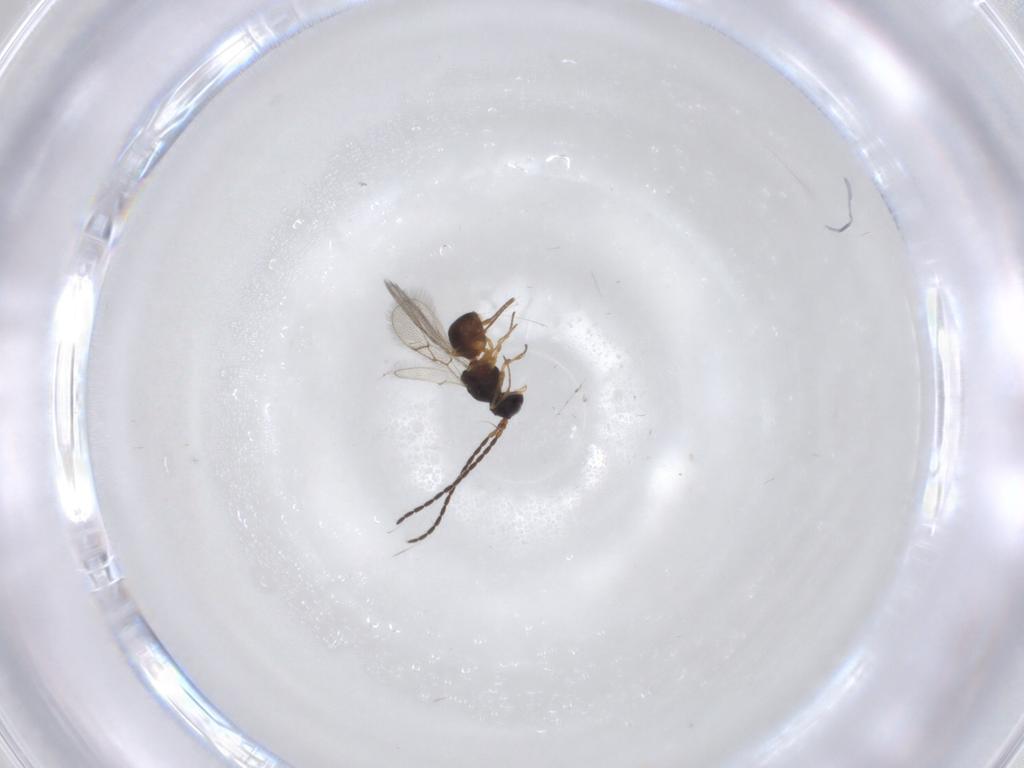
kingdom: Animalia
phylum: Arthropoda
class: Insecta
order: Hymenoptera
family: Figitidae
